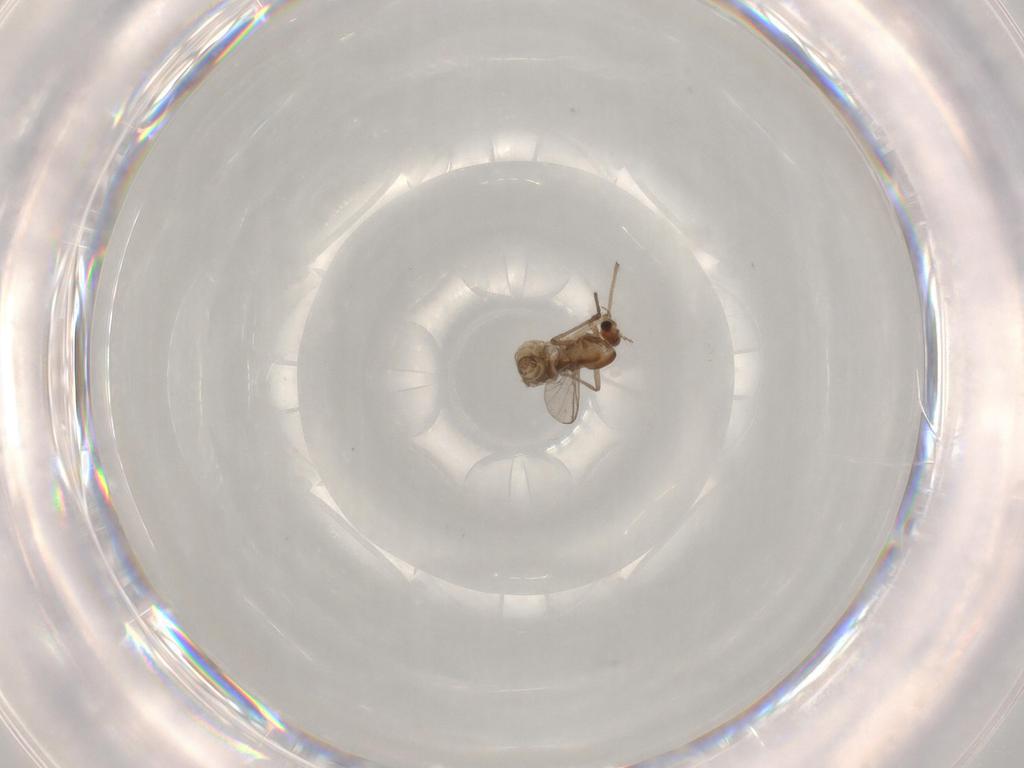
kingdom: Animalia
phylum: Arthropoda
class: Insecta
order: Diptera
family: Chironomidae
